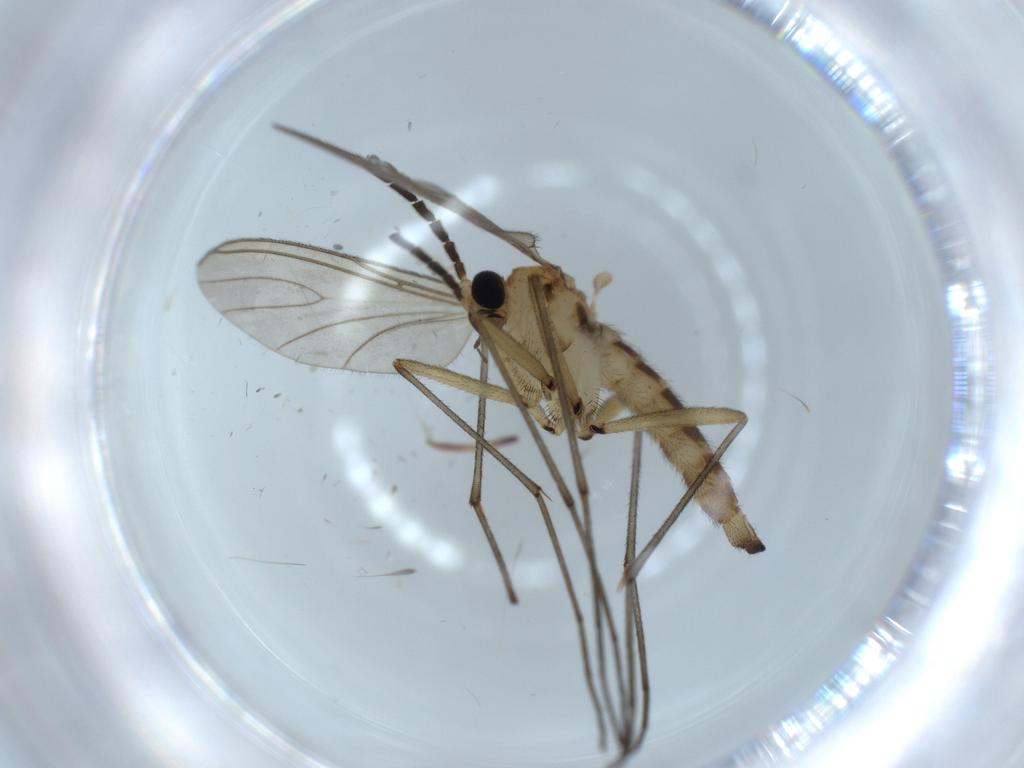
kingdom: Animalia
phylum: Arthropoda
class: Insecta
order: Diptera
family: Sciaridae
